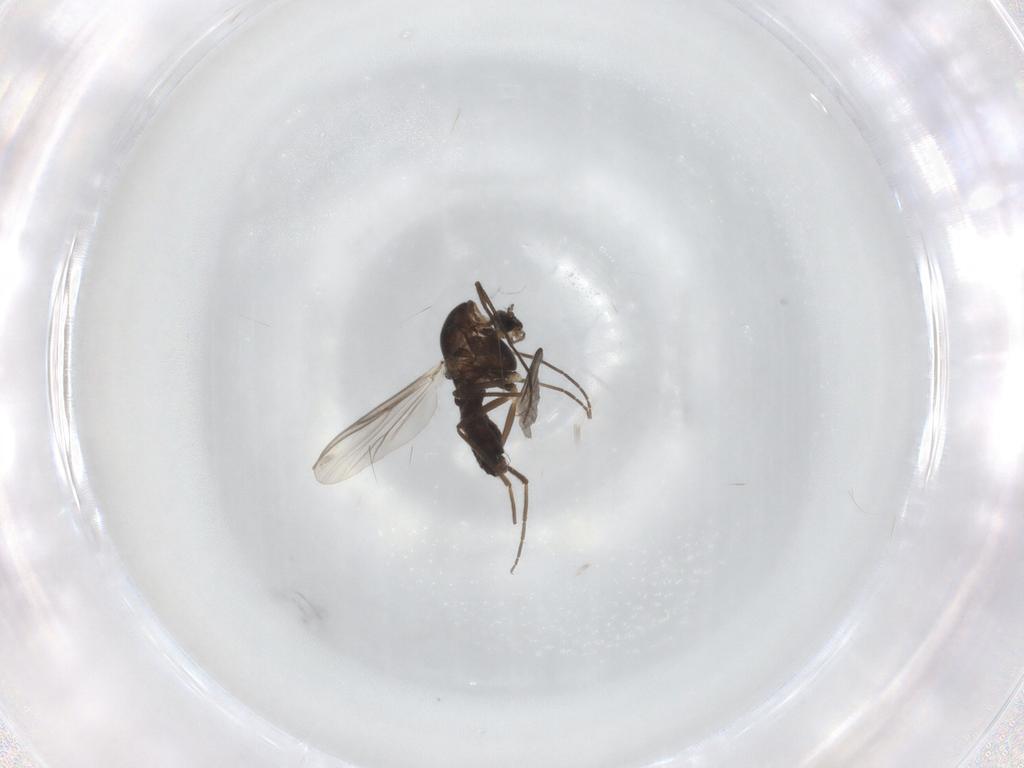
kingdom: Animalia
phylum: Arthropoda
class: Insecta
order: Diptera
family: Chironomidae
